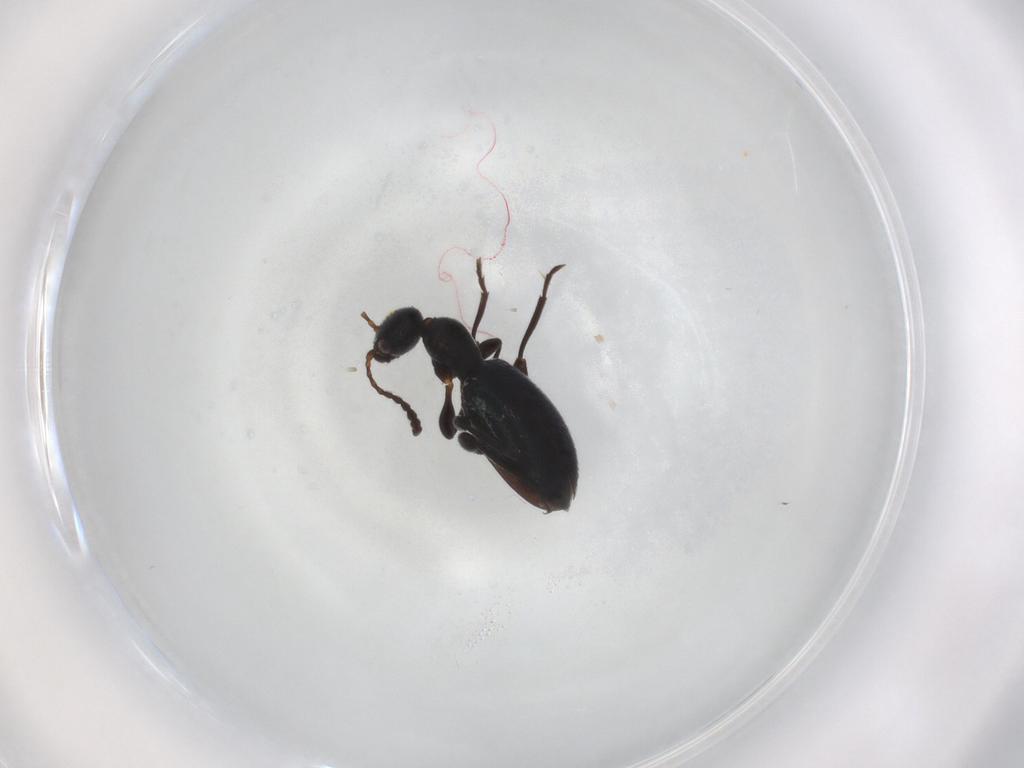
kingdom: Animalia
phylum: Arthropoda
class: Insecta
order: Coleoptera
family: Anthicidae
